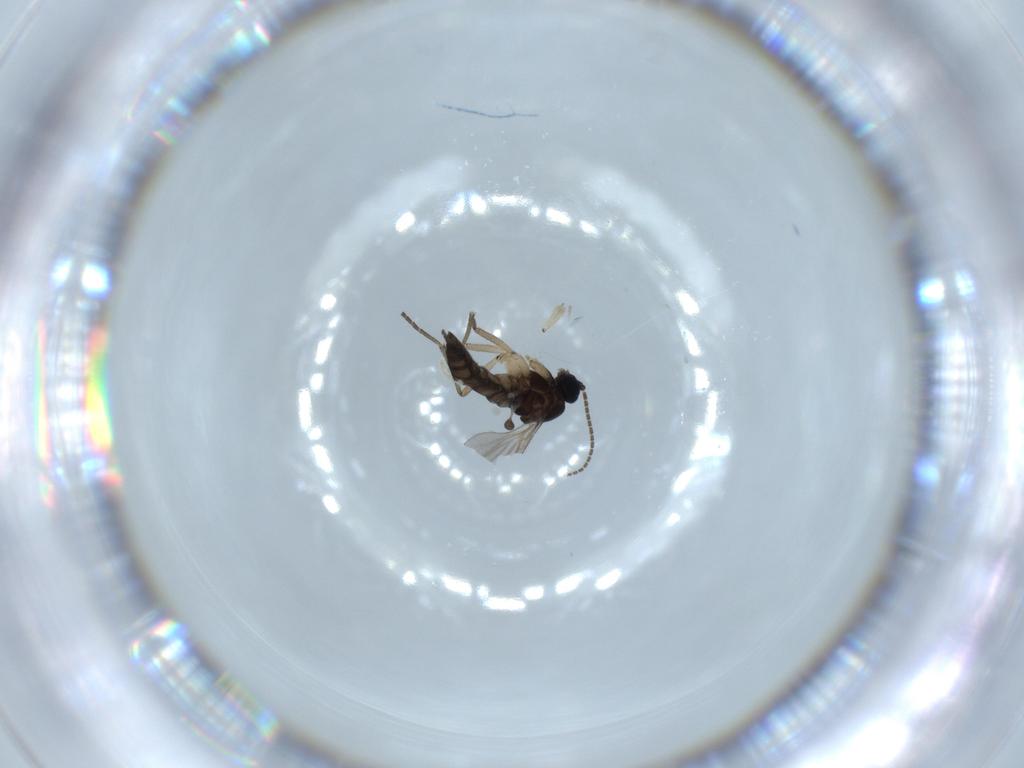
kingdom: Animalia
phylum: Arthropoda
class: Insecta
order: Diptera
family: Sciaridae
